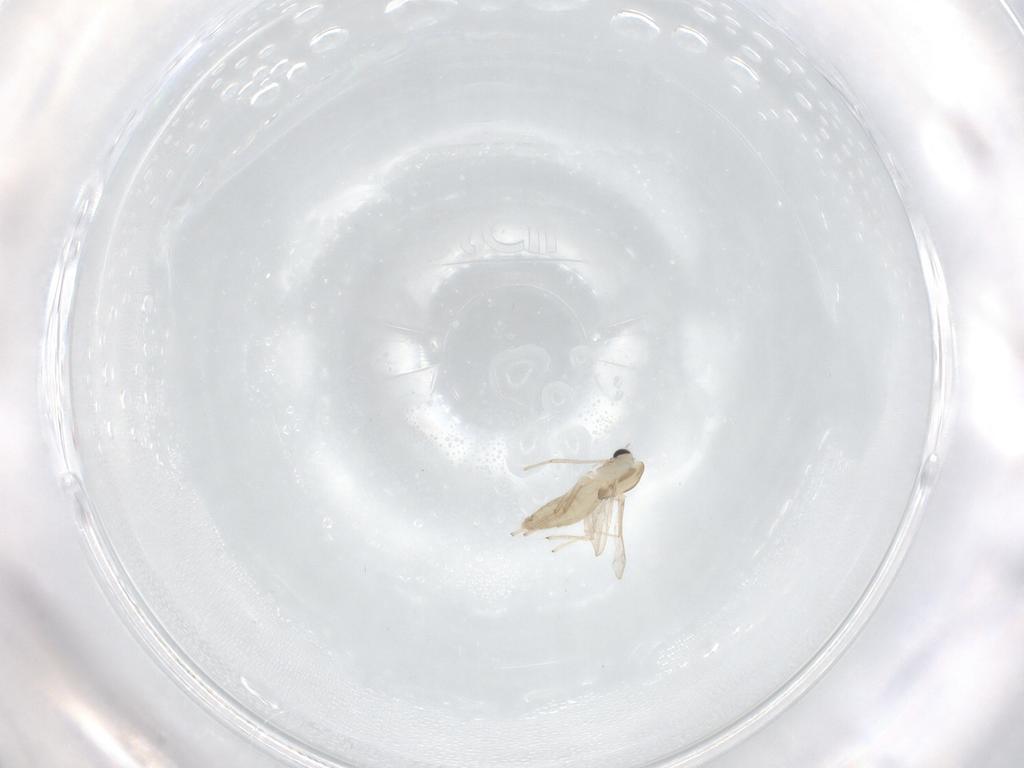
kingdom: Animalia
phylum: Arthropoda
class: Insecta
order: Diptera
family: Chironomidae
